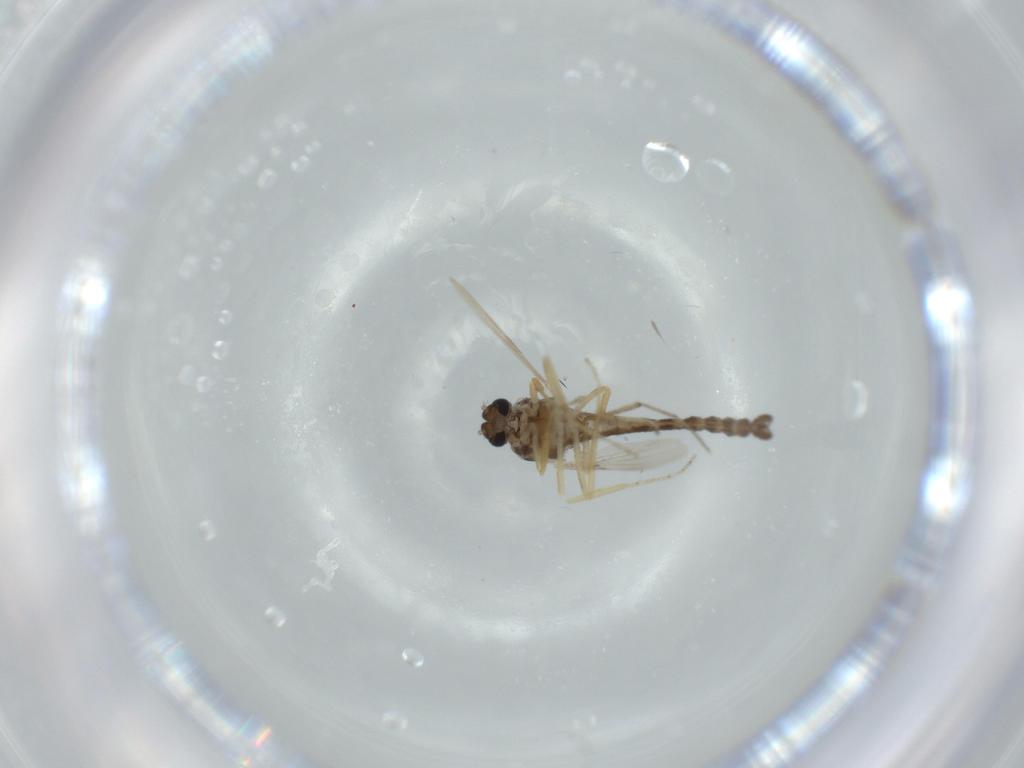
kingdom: Animalia
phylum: Arthropoda
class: Insecta
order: Diptera
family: Ceratopogonidae
